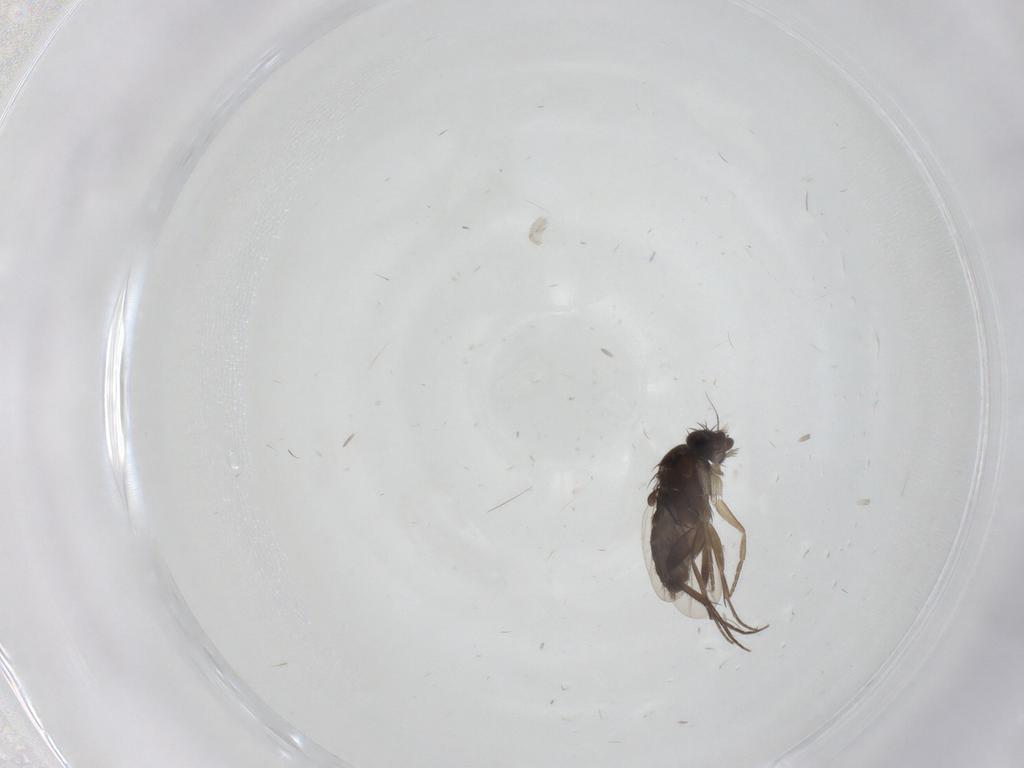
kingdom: Animalia
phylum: Arthropoda
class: Insecta
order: Diptera
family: Phoridae
